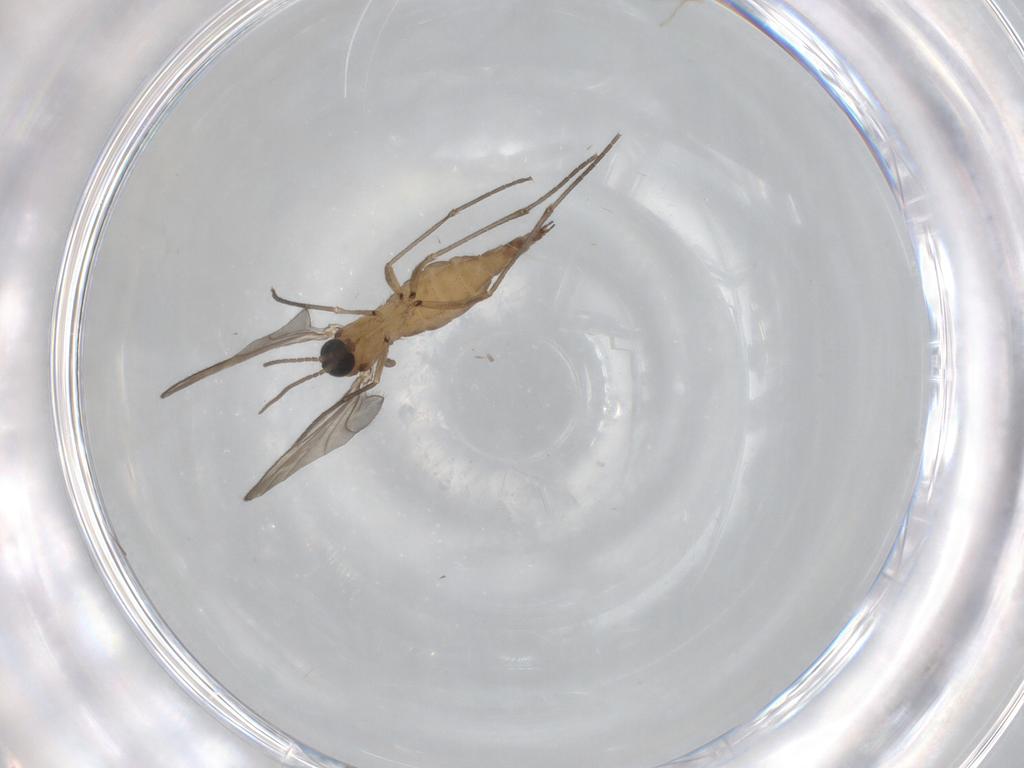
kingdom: Animalia
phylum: Arthropoda
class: Insecta
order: Diptera
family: Sciaridae
